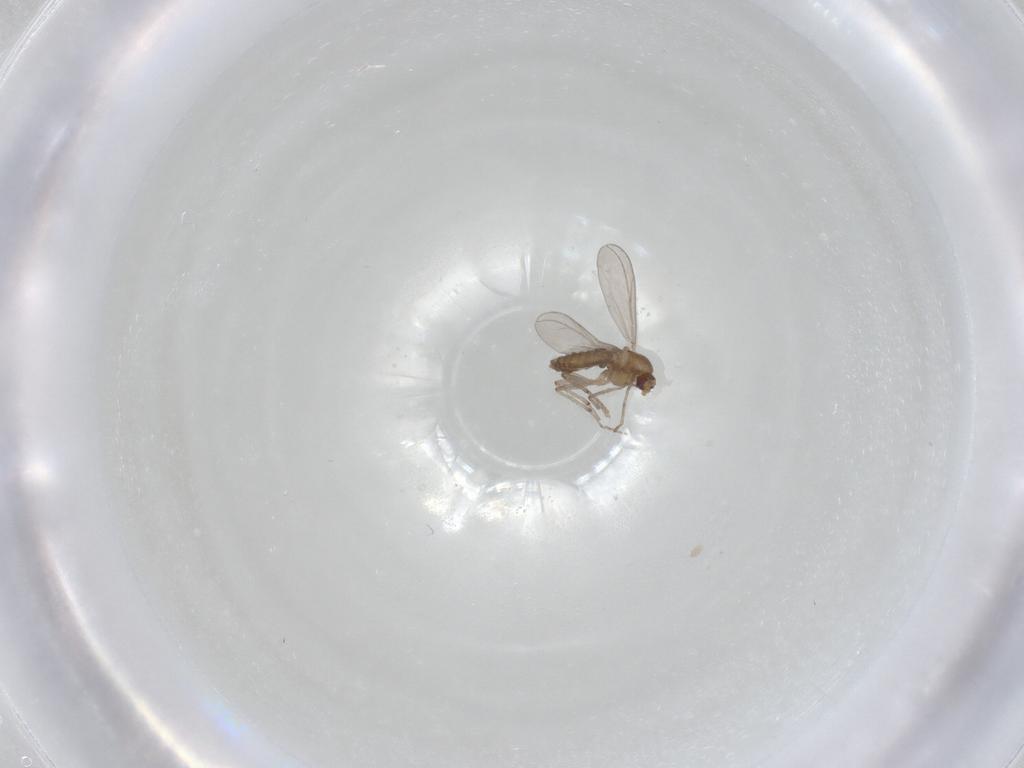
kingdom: Animalia
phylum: Arthropoda
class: Insecta
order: Diptera
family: Chironomidae
